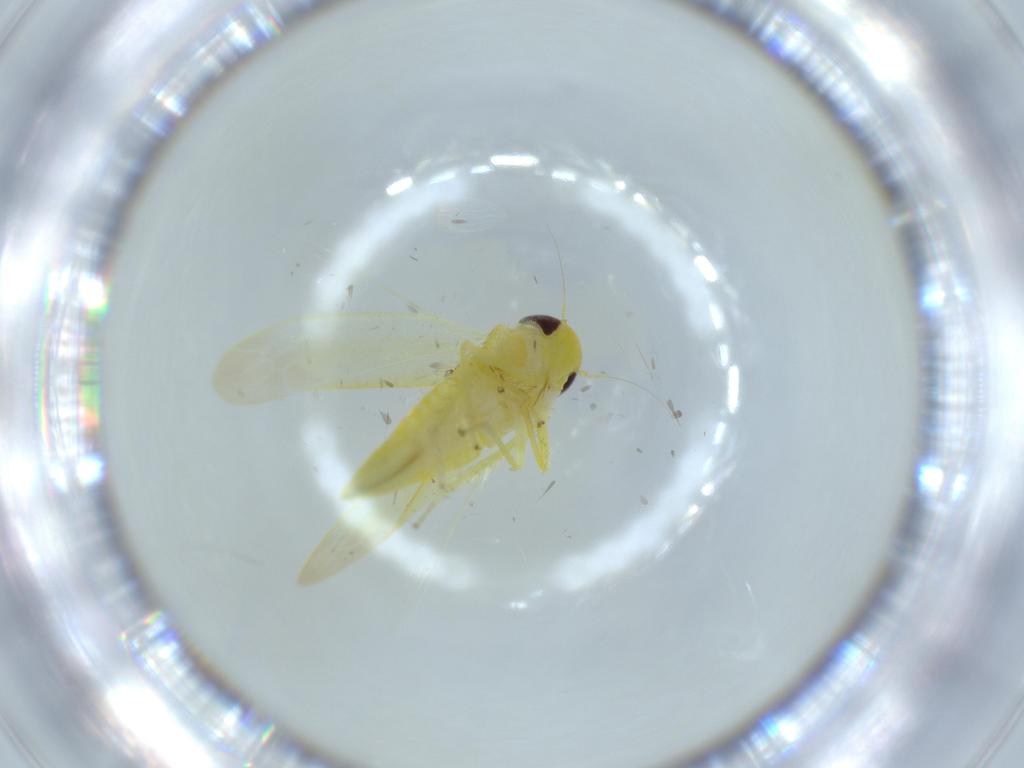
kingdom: Animalia
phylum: Arthropoda
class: Insecta
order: Hemiptera
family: Cicadellidae
